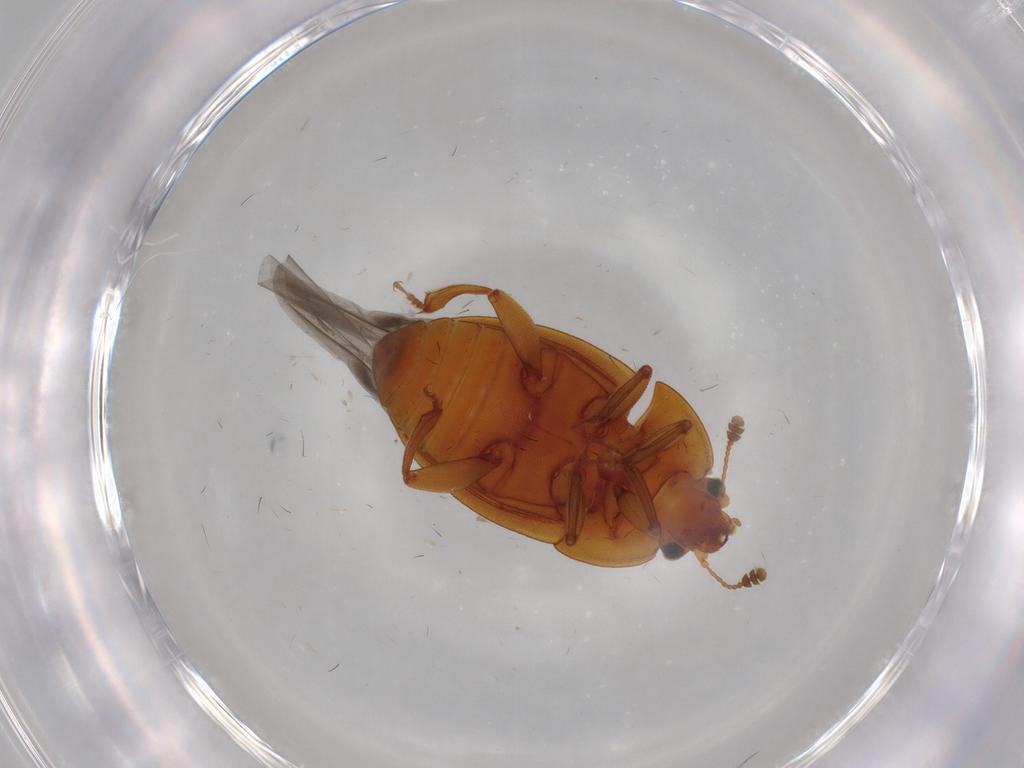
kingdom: Animalia
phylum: Arthropoda
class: Insecta
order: Coleoptera
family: Nitidulidae
